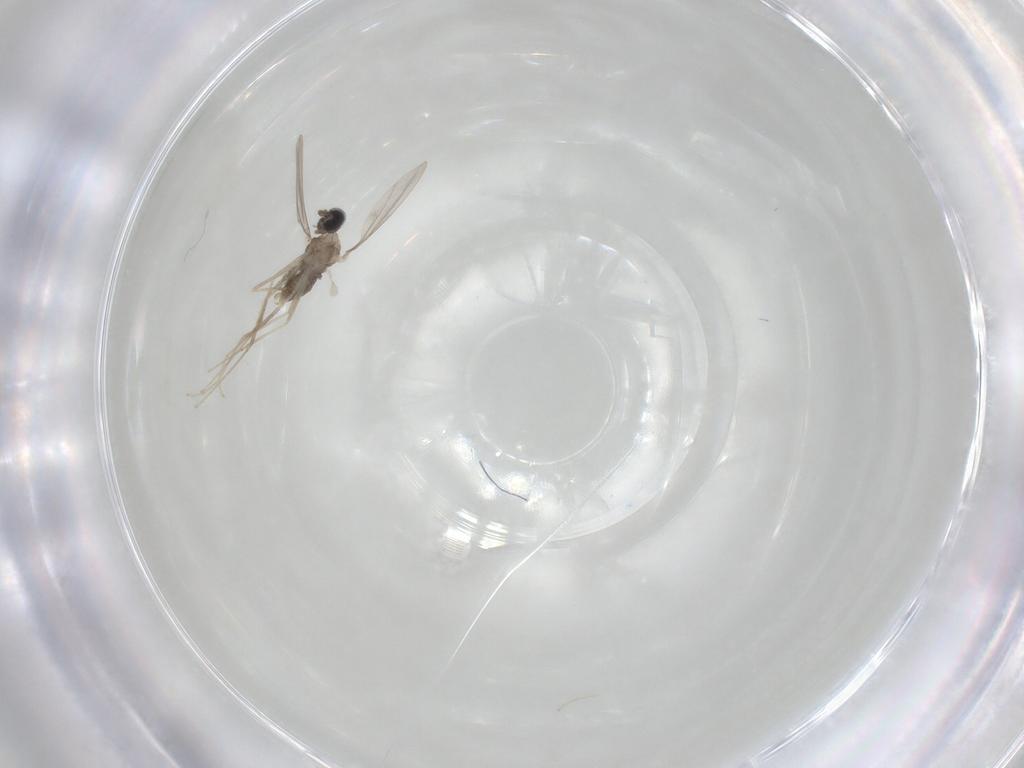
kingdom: Animalia
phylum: Arthropoda
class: Insecta
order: Diptera
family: Cecidomyiidae
